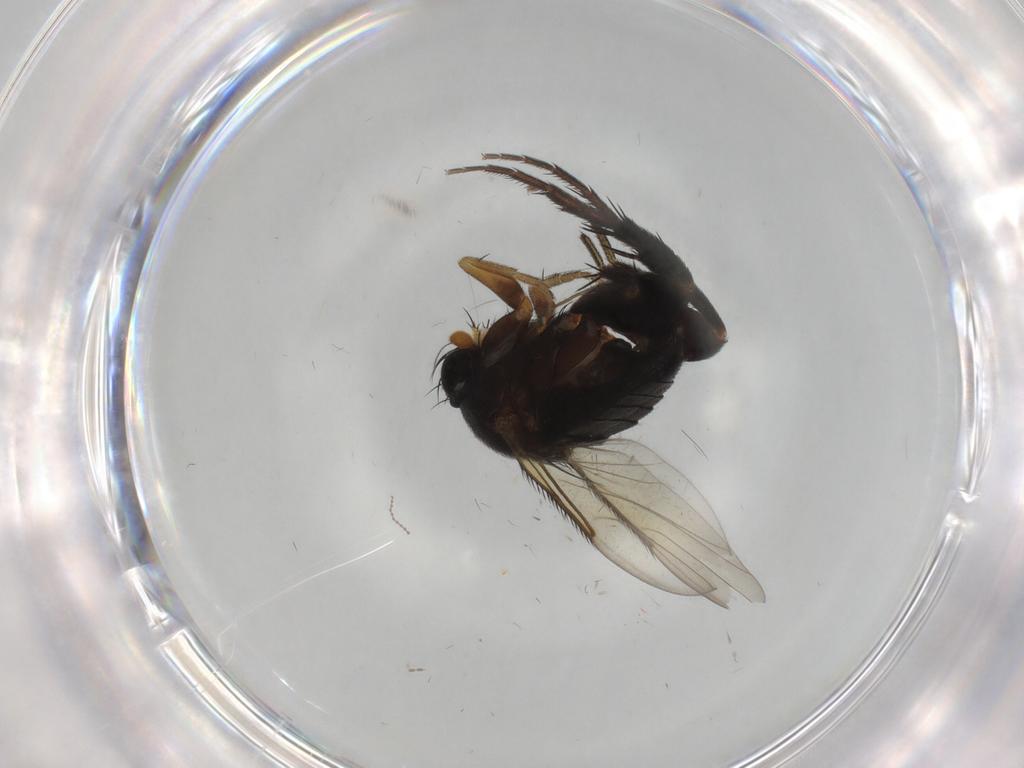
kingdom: Animalia
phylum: Arthropoda
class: Insecta
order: Diptera
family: Phoridae
